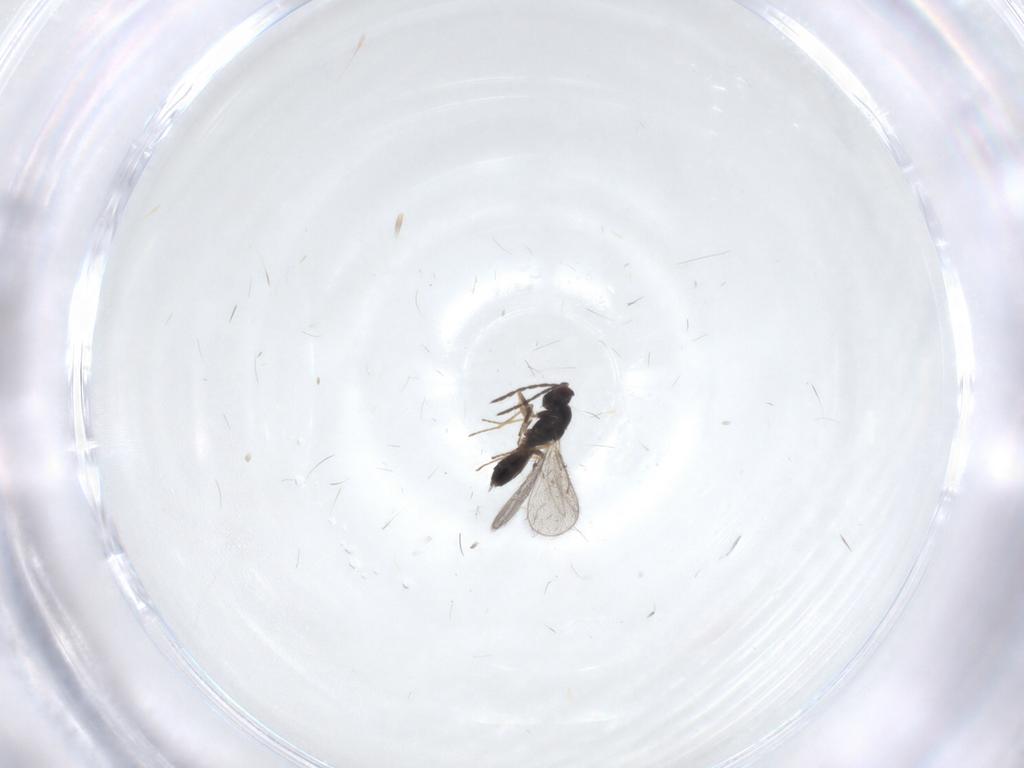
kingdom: Animalia
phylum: Arthropoda
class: Insecta
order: Hymenoptera
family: Eulophidae
